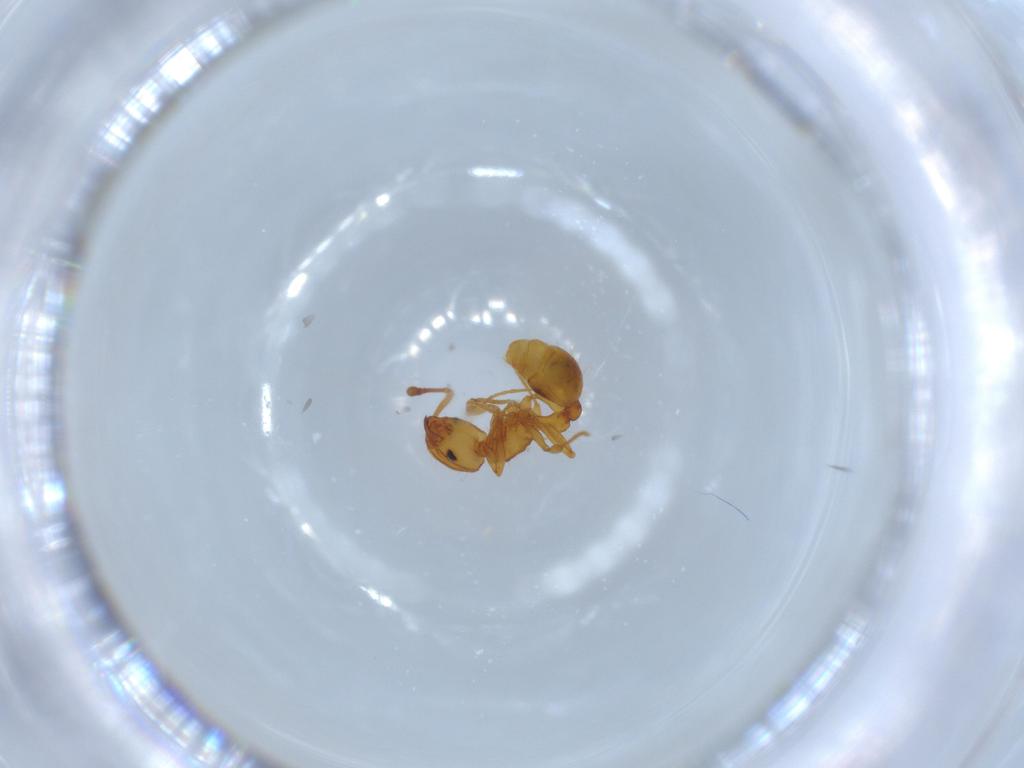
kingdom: Animalia
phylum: Arthropoda
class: Insecta
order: Hymenoptera
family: Formicidae
